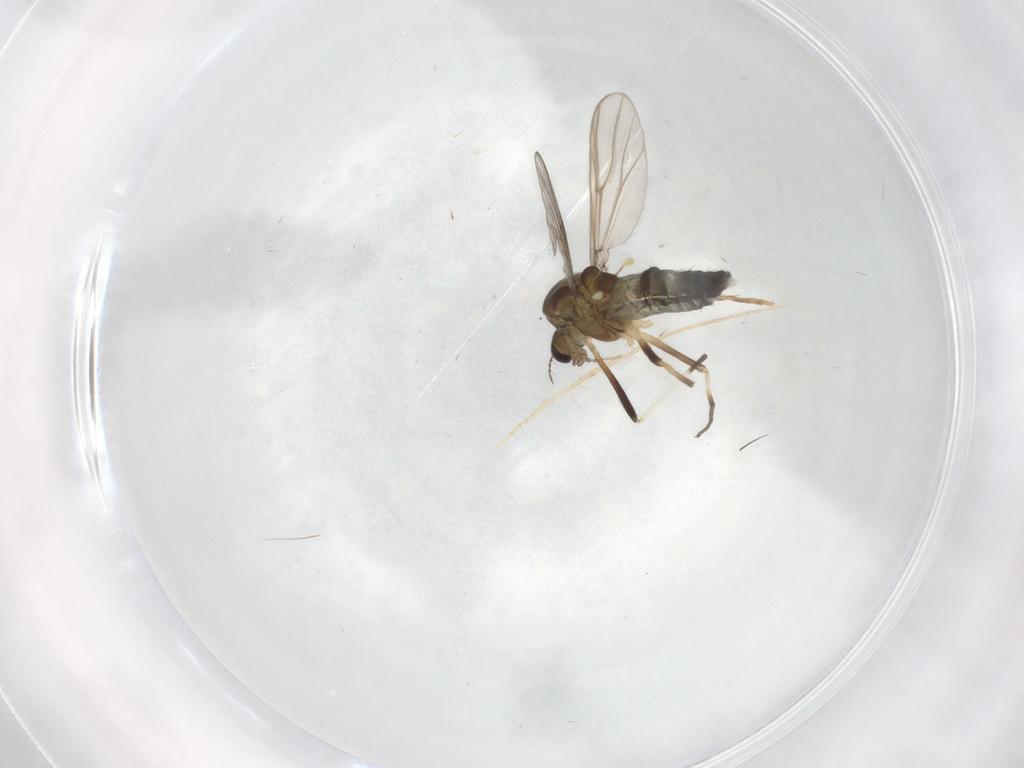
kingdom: Animalia
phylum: Arthropoda
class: Insecta
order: Diptera
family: Chironomidae
